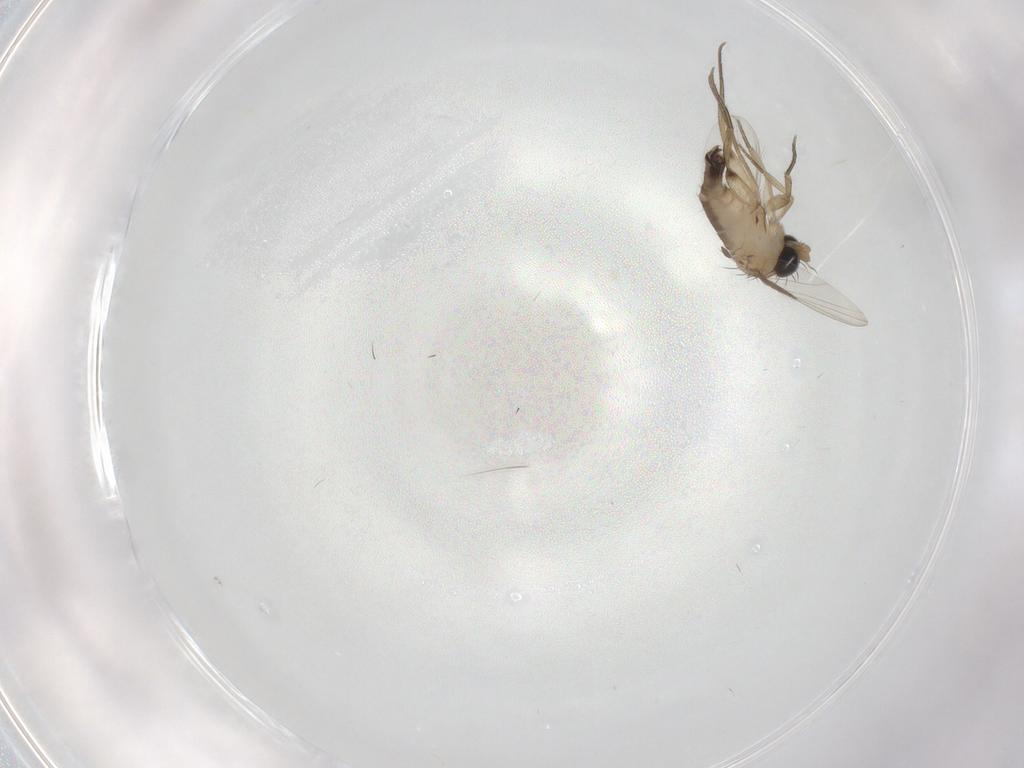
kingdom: Animalia
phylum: Arthropoda
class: Insecta
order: Diptera
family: Phoridae
